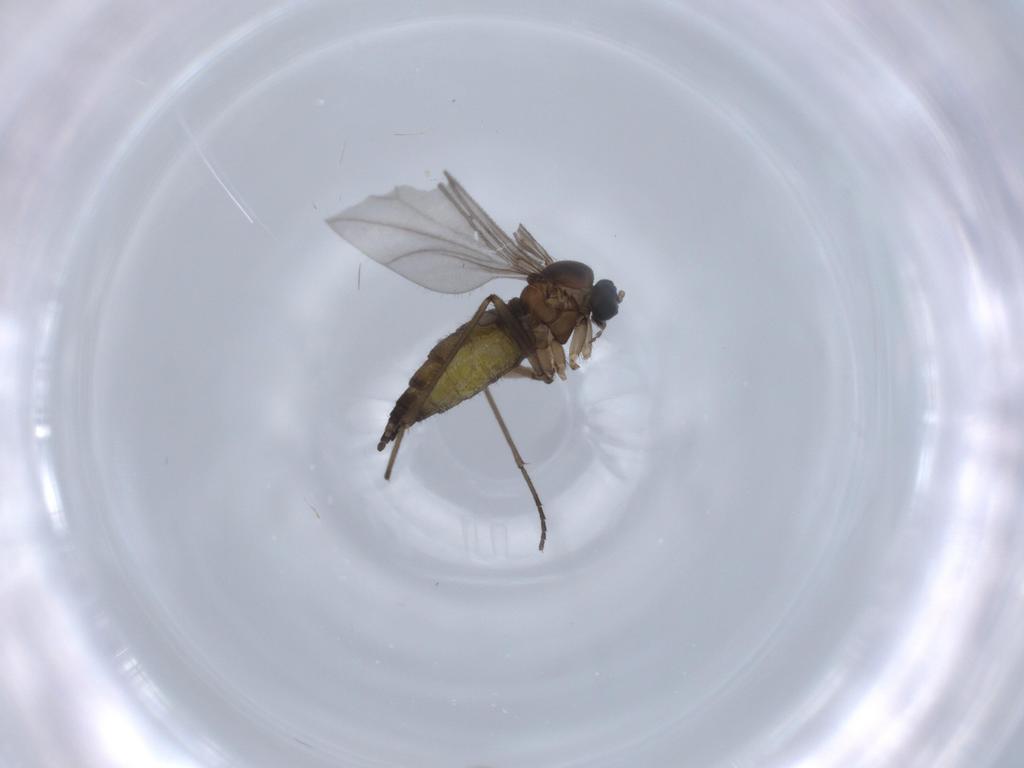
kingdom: Animalia
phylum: Arthropoda
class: Insecta
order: Diptera
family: Sciaridae
